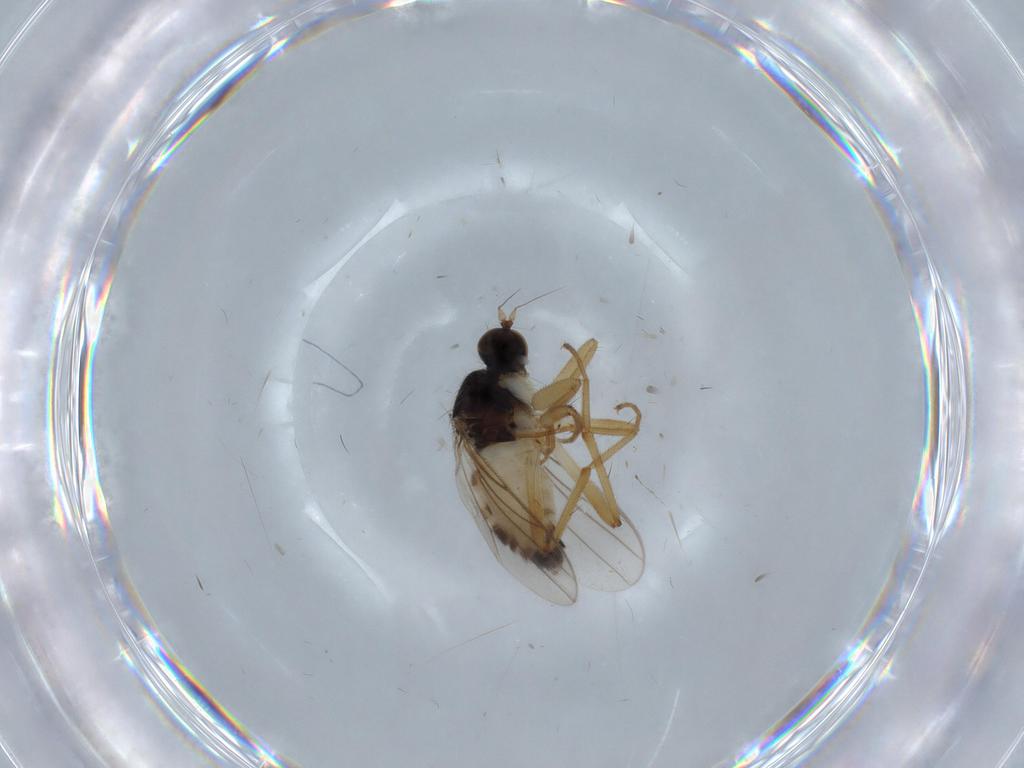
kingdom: Animalia
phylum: Arthropoda
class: Insecta
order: Diptera
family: Hybotidae
